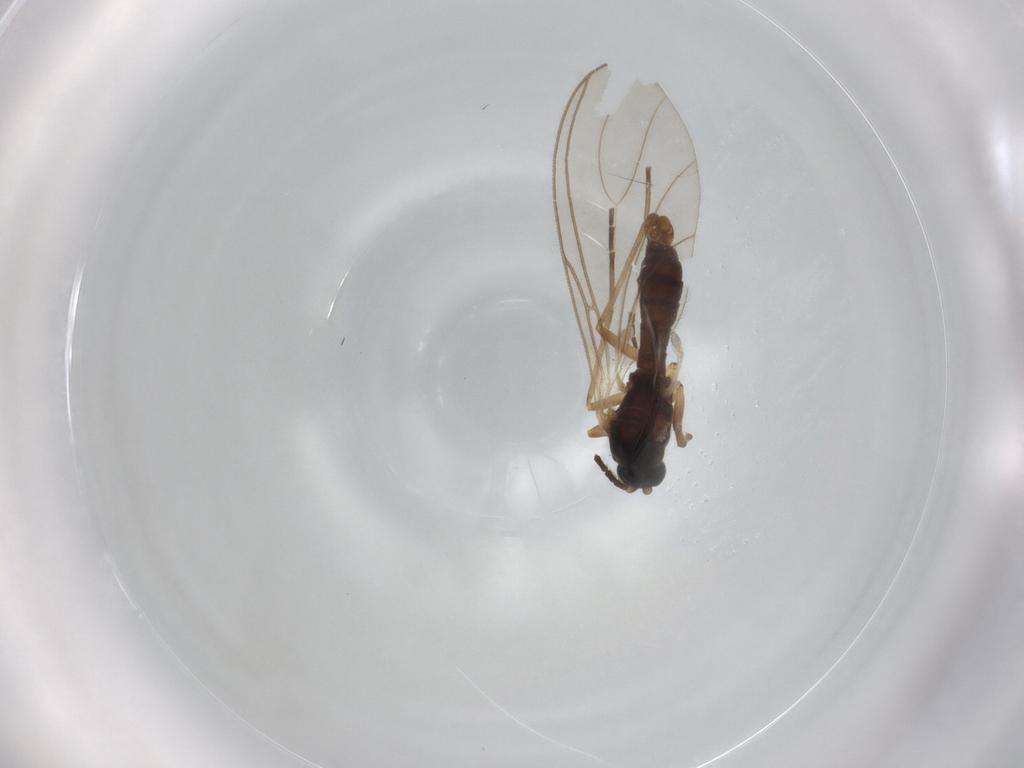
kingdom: Animalia
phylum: Arthropoda
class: Insecta
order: Diptera
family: Sciaridae
